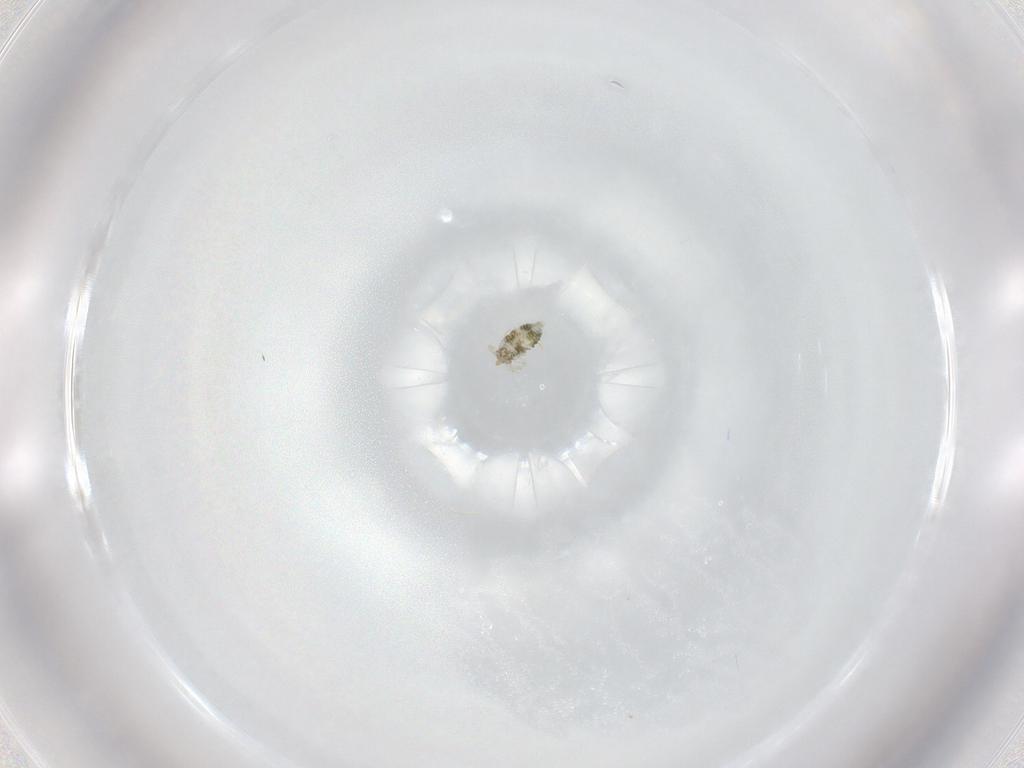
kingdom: Animalia
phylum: Arthropoda
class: Insecta
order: Neuroptera
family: Coniopterygidae
